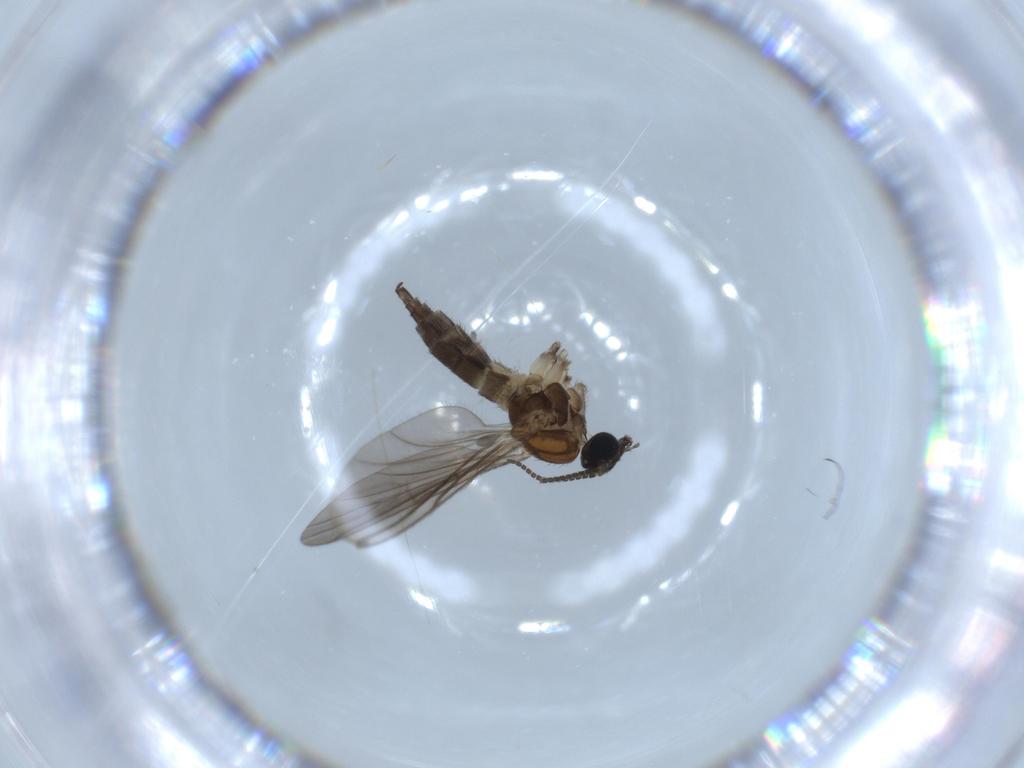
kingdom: Animalia
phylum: Arthropoda
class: Insecta
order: Diptera
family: Sciaridae
